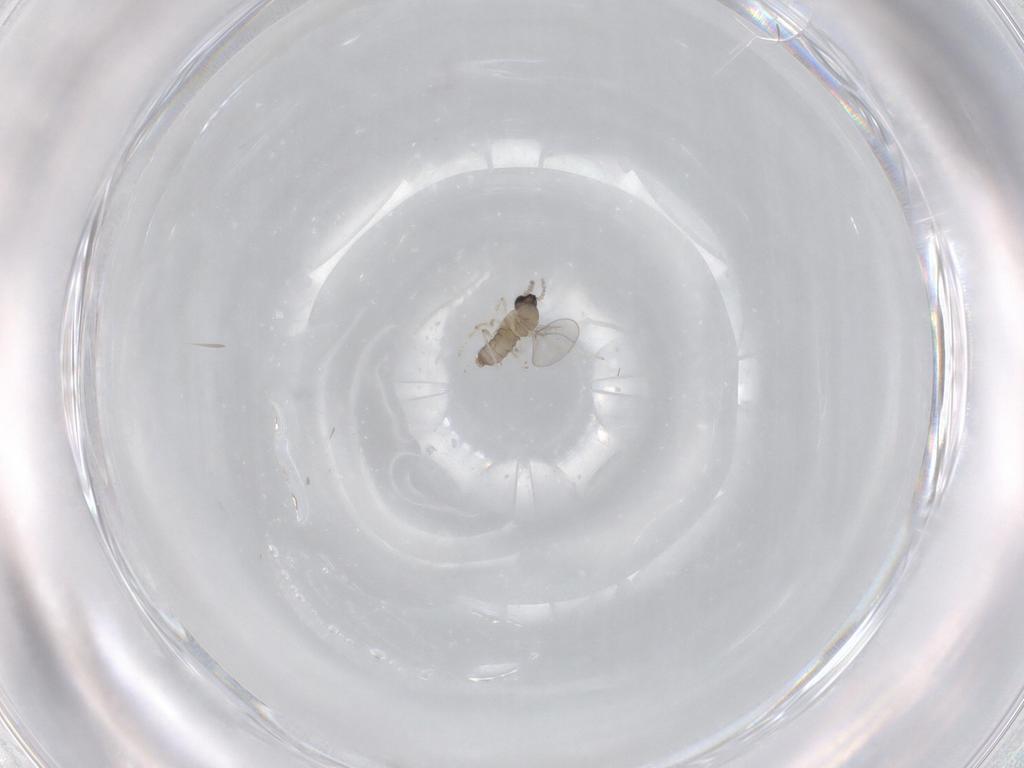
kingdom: Animalia
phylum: Arthropoda
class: Insecta
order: Diptera
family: Cecidomyiidae
